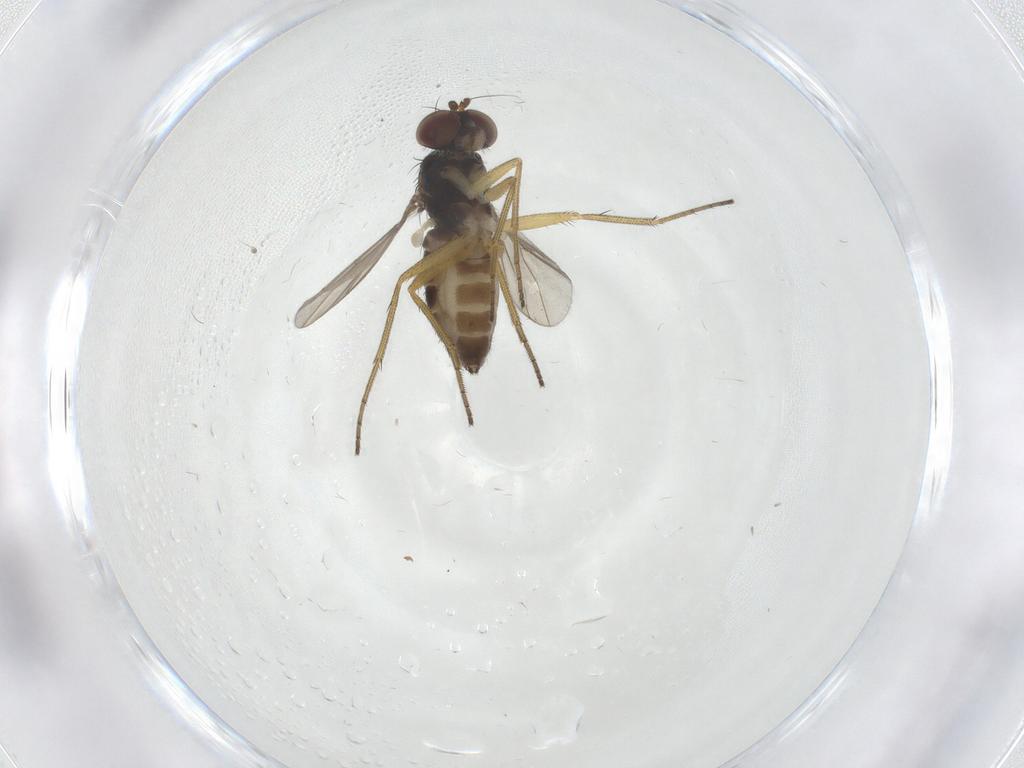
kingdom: Animalia
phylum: Arthropoda
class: Insecta
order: Diptera
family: Dolichopodidae
